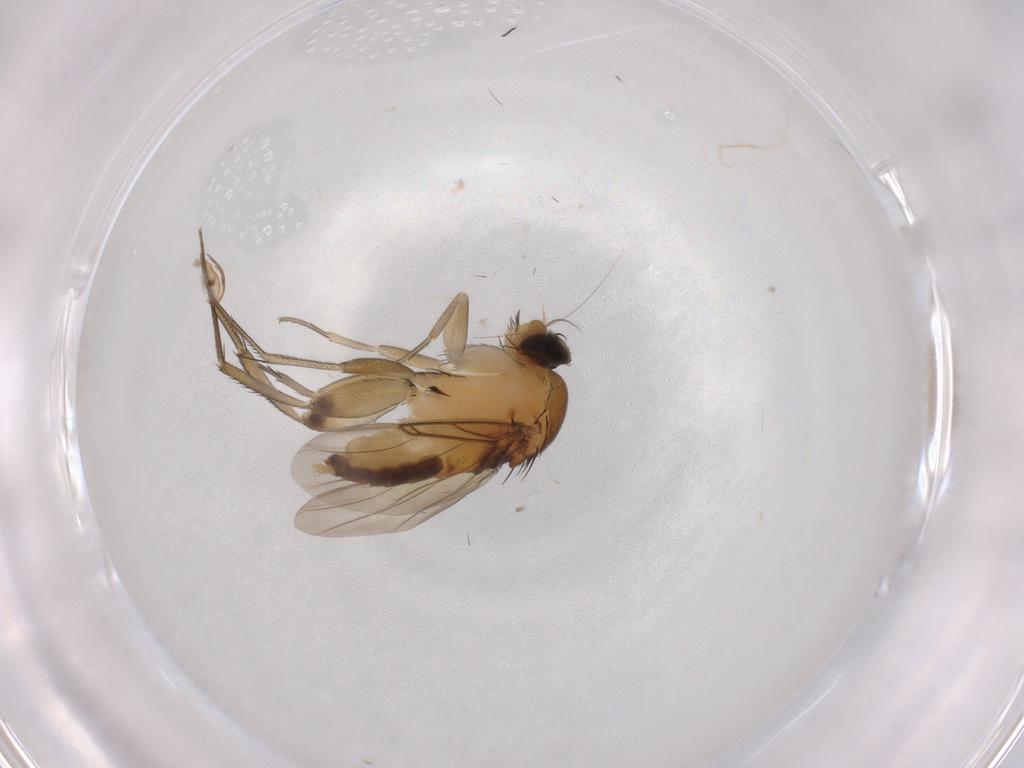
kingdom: Animalia
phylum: Arthropoda
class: Insecta
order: Diptera
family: Phoridae
